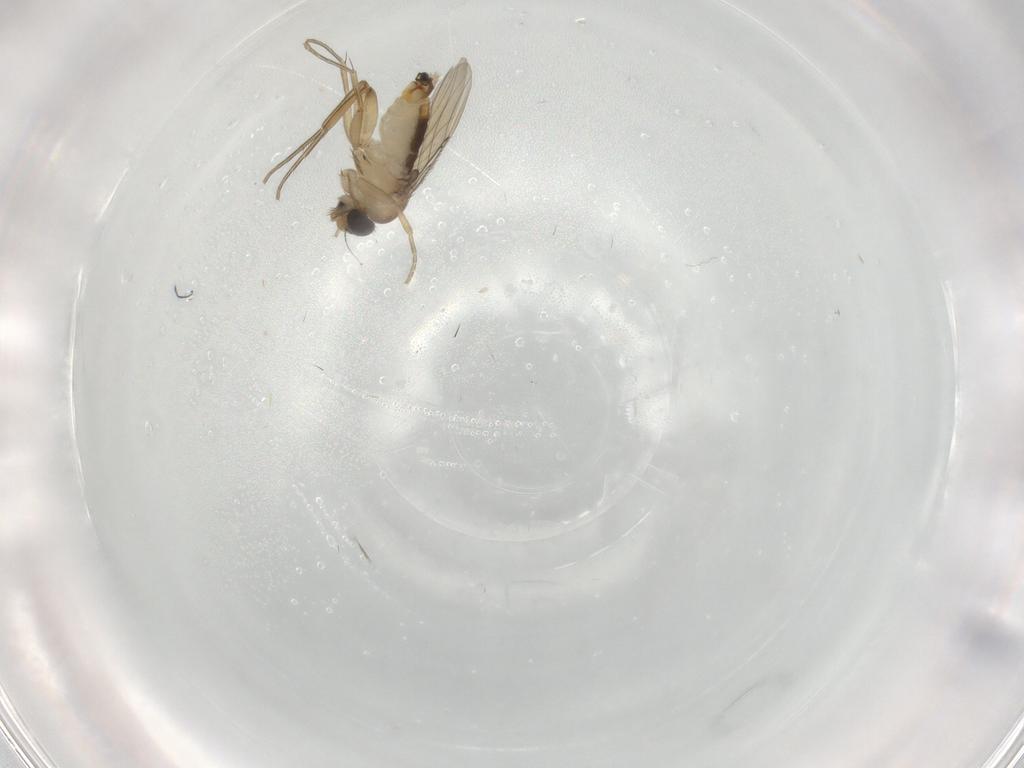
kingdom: Animalia
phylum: Arthropoda
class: Insecta
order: Diptera
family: Phoridae
